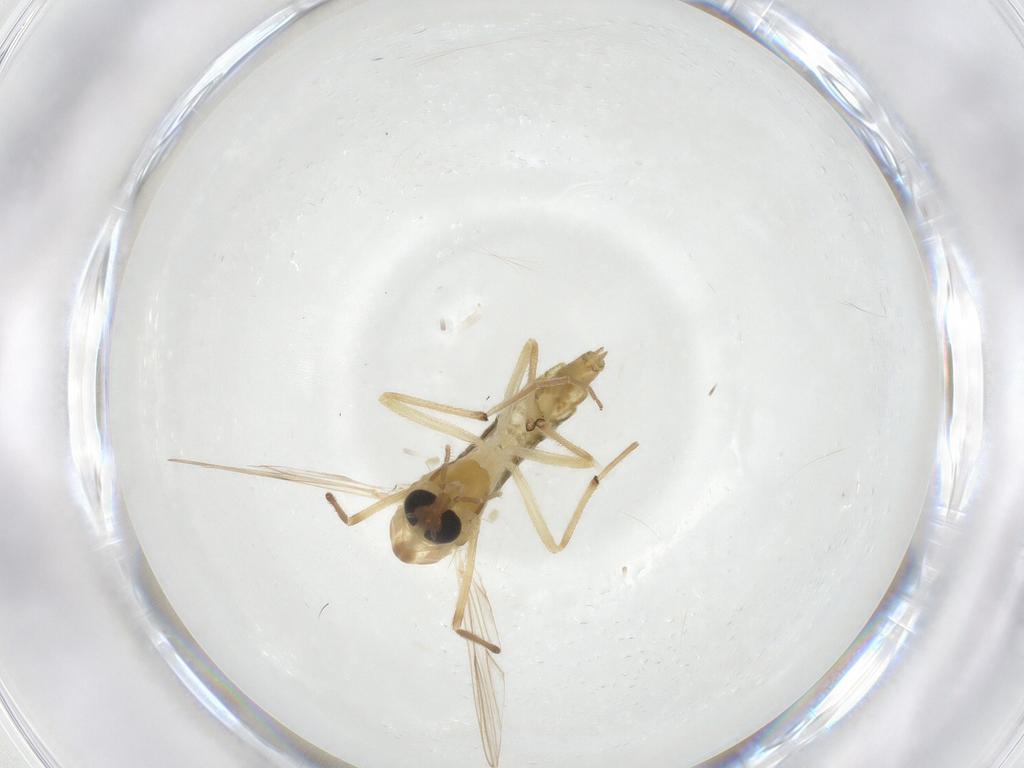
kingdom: Animalia
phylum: Arthropoda
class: Insecta
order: Diptera
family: Chironomidae
